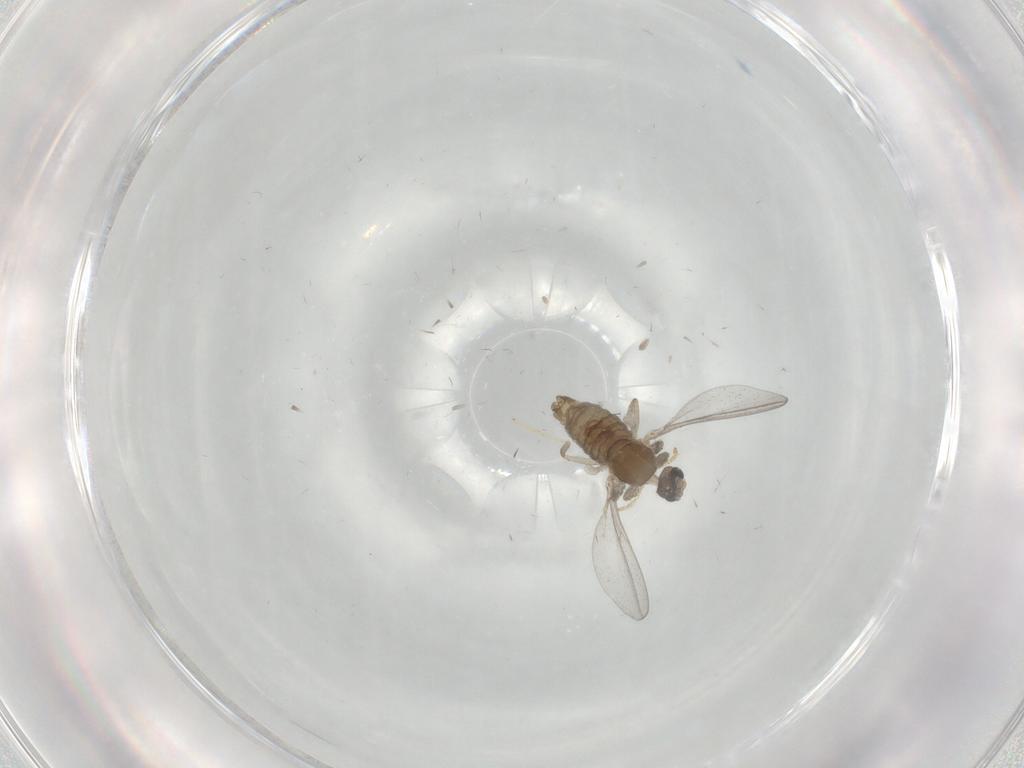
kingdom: Animalia
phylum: Arthropoda
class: Insecta
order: Diptera
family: Cecidomyiidae
